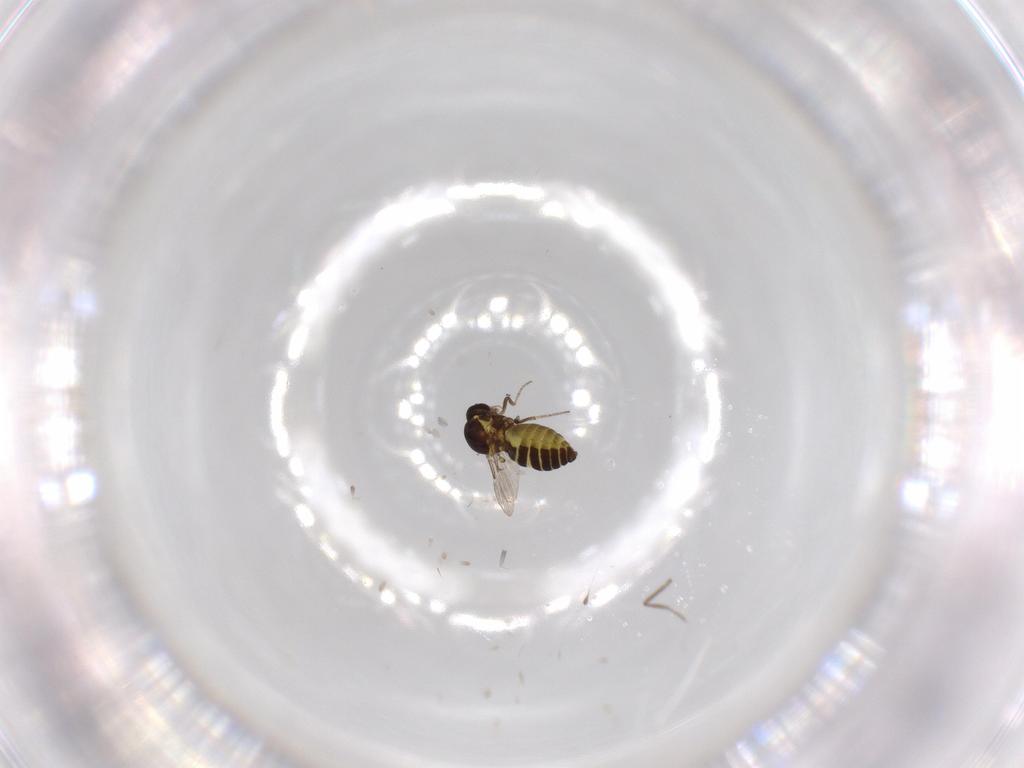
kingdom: Animalia
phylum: Arthropoda
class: Insecta
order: Diptera
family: Ceratopogonidae
